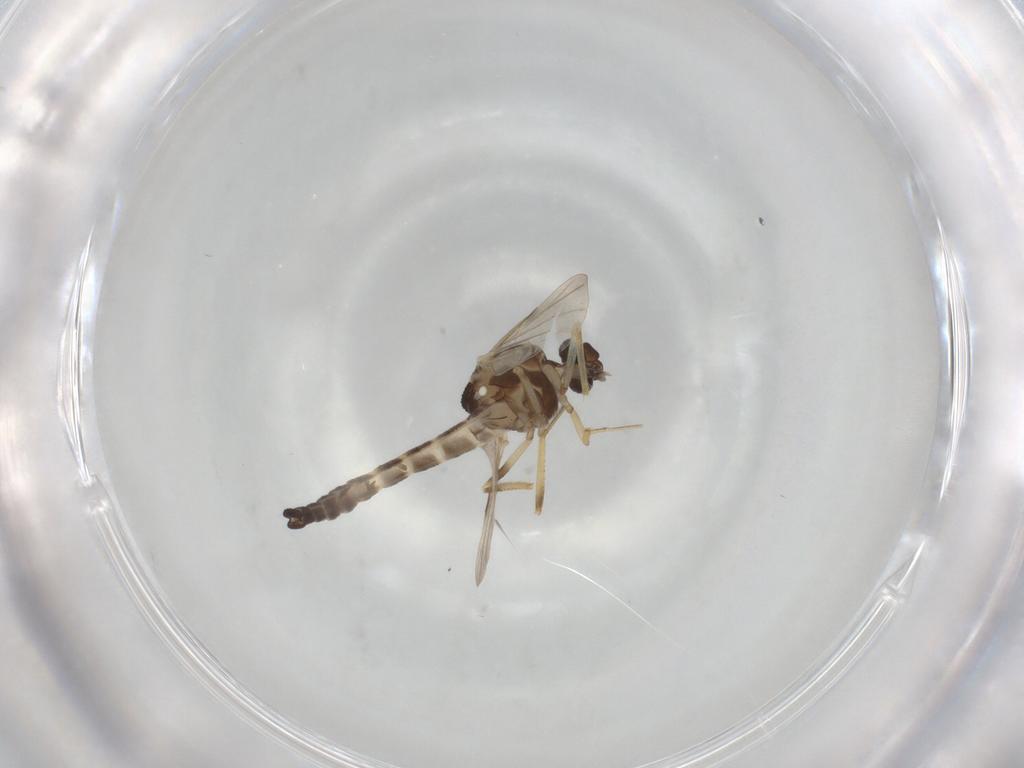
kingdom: Animalia
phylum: Arthropoda
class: Insecta
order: Diptera
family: Ceratopogonidae
